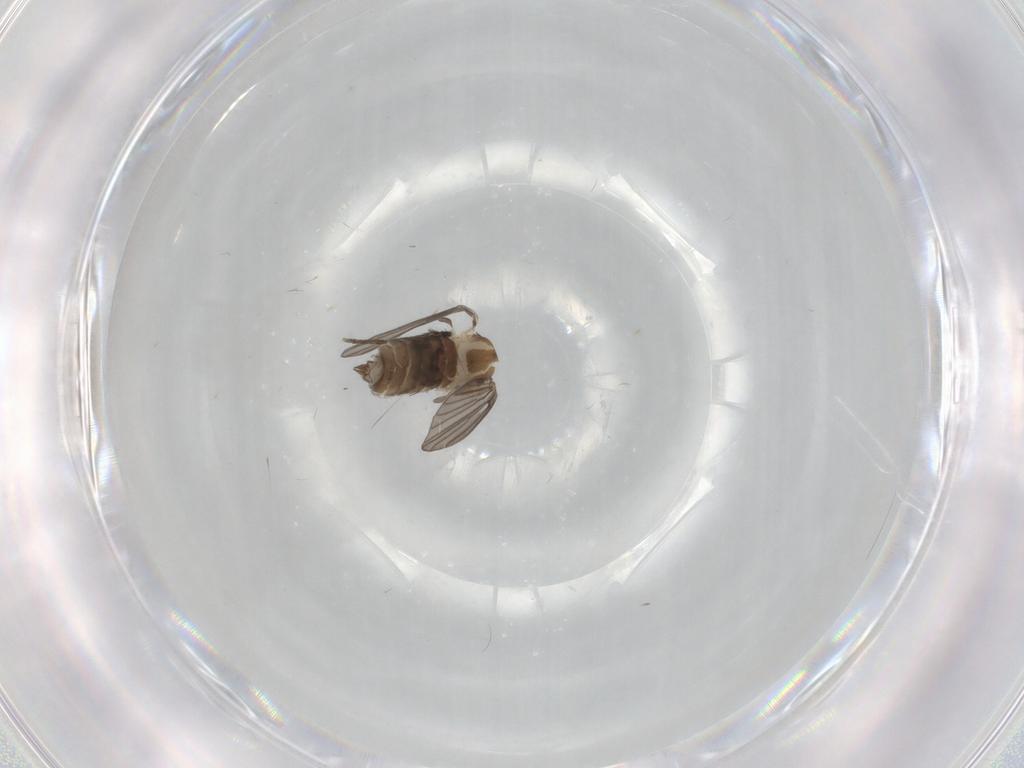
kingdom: Animalia
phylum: Arthropoda
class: Insecta
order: Diptera
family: Psychodidae
